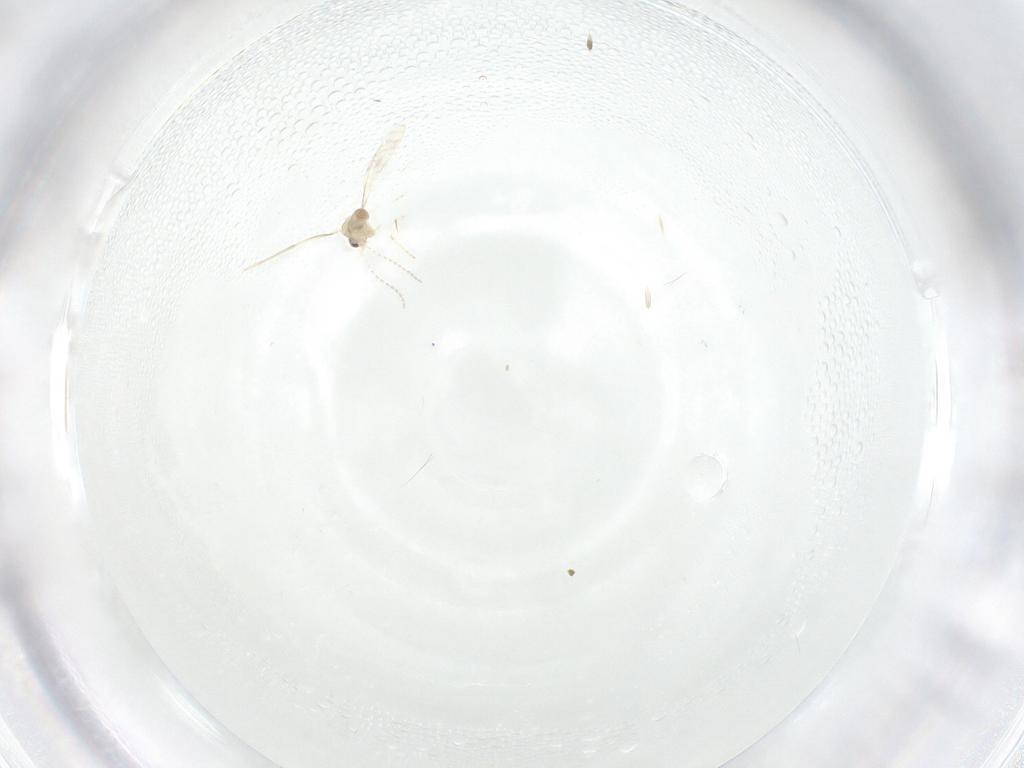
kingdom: Animalia
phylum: Arthropoda
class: Insecta
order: Diptera
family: Cecidomyiidae
